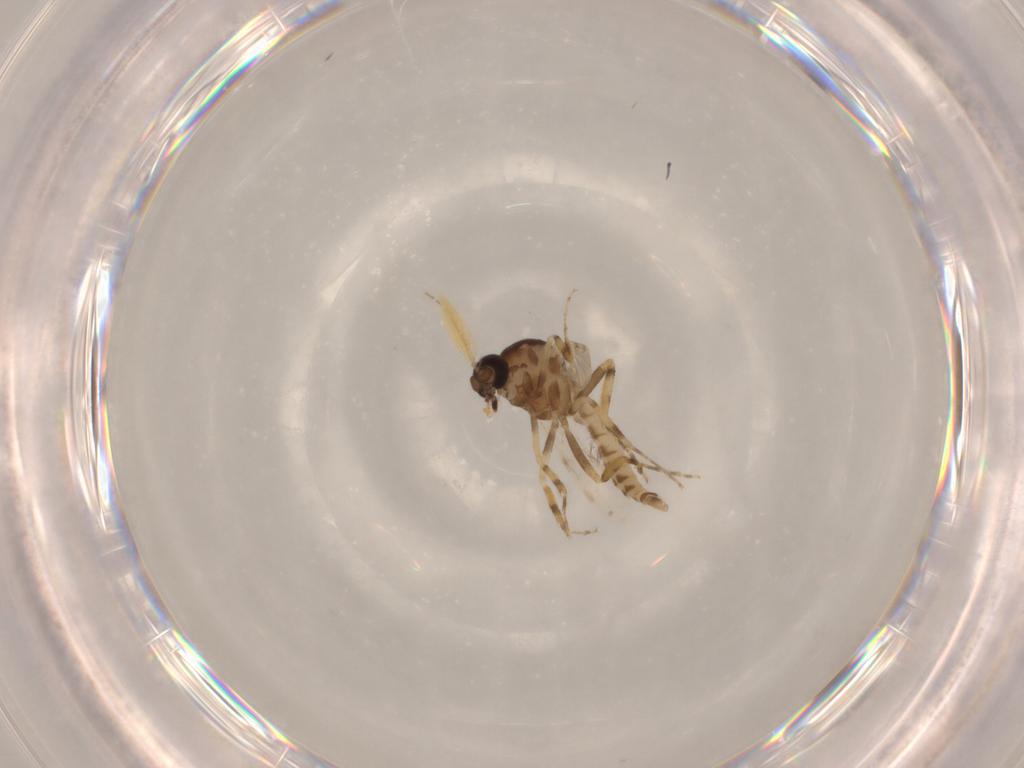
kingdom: Animalia
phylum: Arthropoda
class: Insecta
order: Diptera
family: Ceratopogonidae
